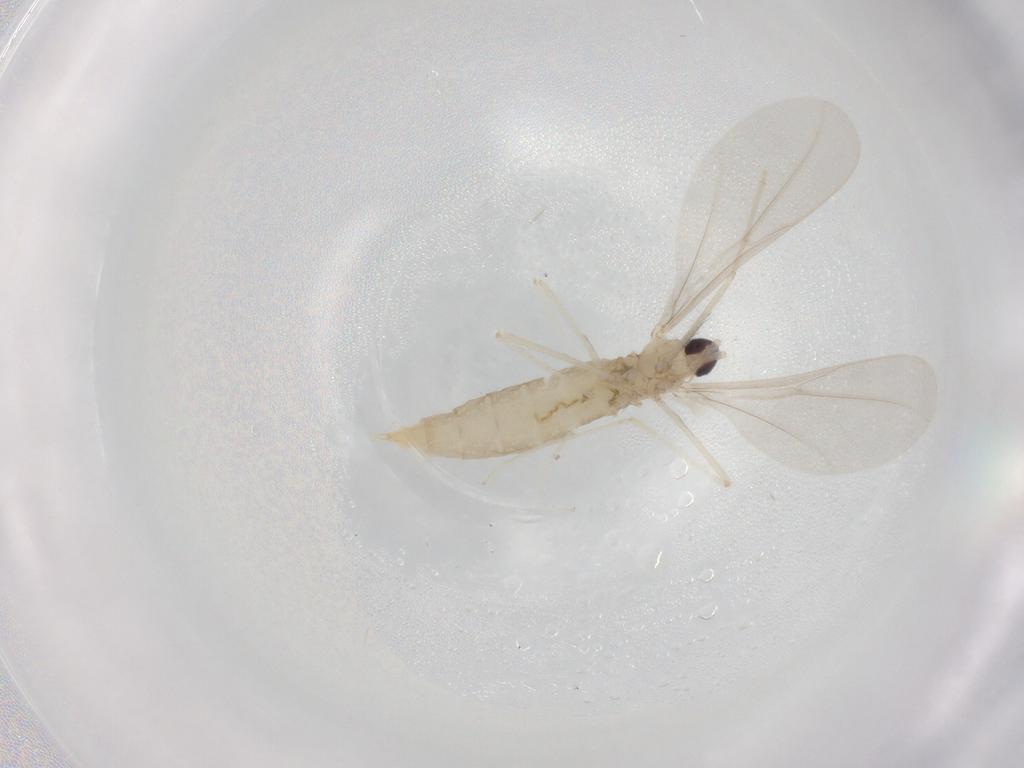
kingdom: Animalia
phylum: Arthropoda
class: Insecta
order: Diptera
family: Cecidomyiidae
